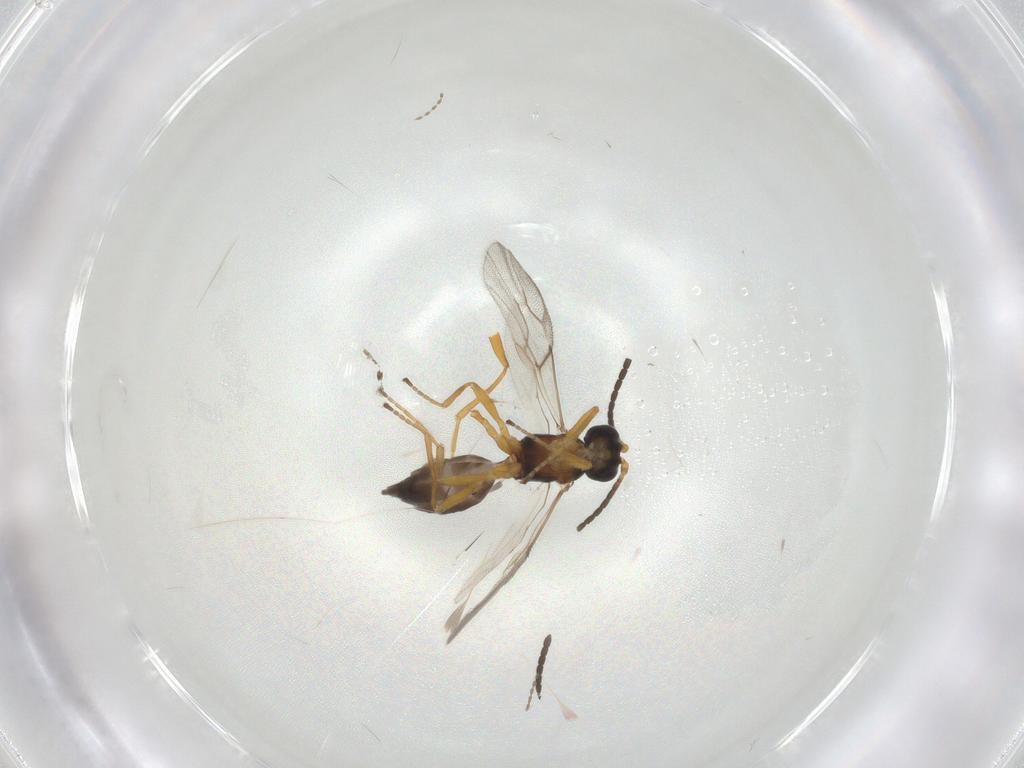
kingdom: Animalia
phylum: Arthropoda
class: Insecta
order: Hymenoptera
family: Braconidae
